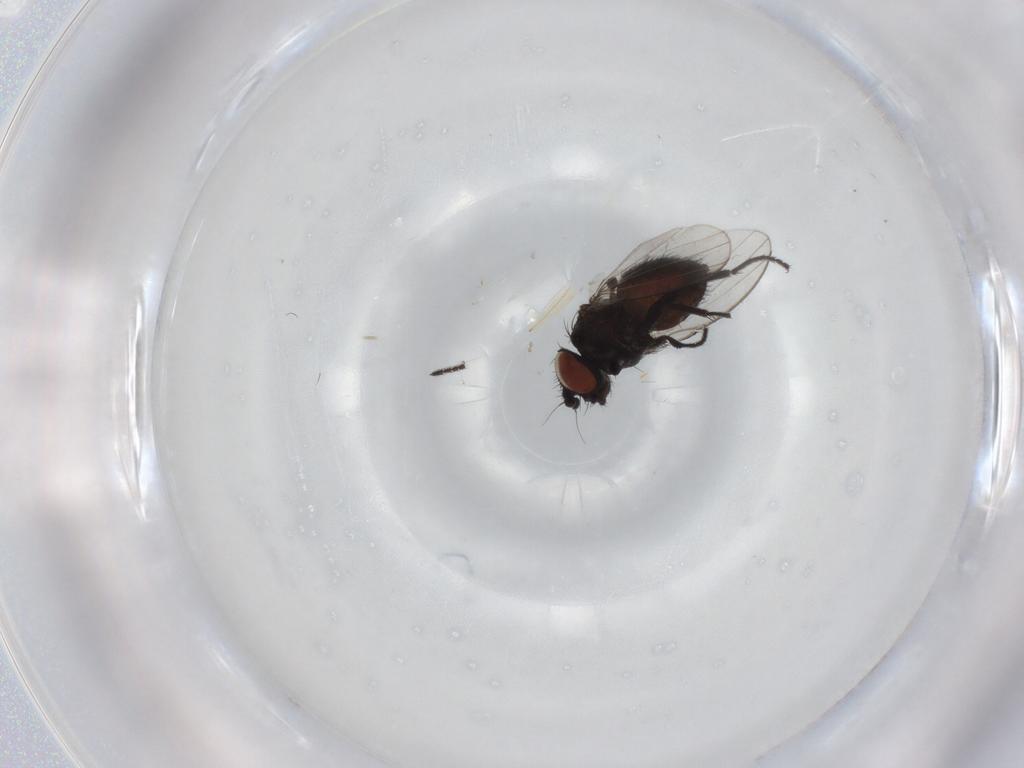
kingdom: Animalia
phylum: Arthropoda
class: Insecta
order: Diptera
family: Milichiidae
